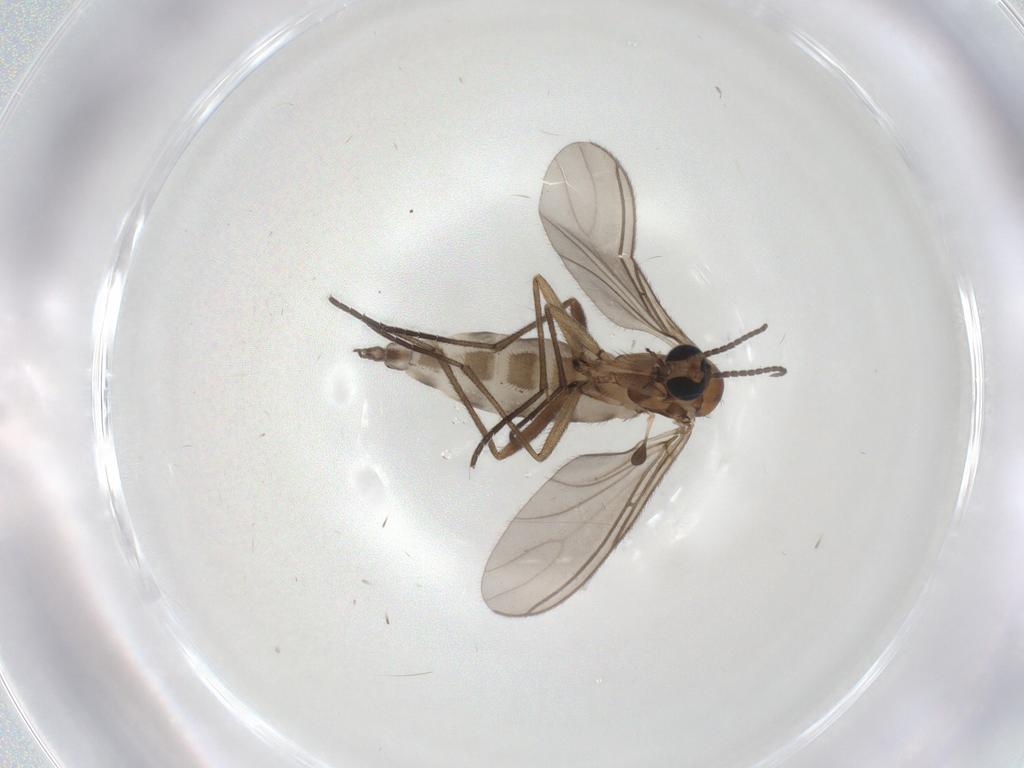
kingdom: Animalia
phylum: Arthropoda
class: Insecta
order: Diptera
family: Sciaridae
